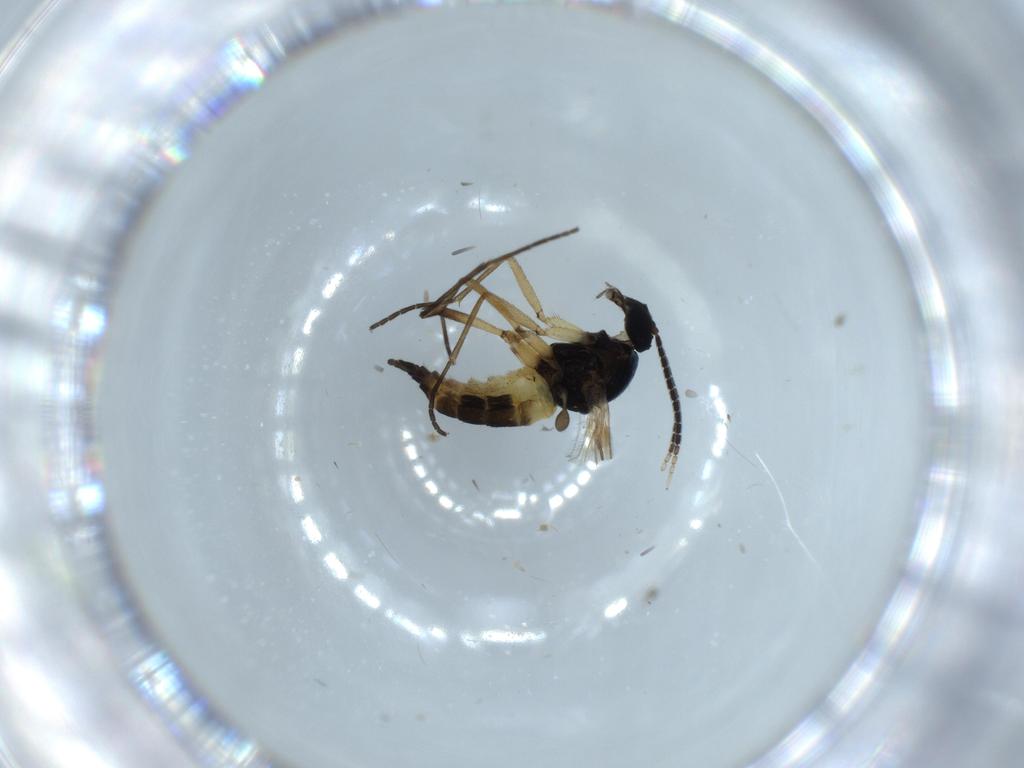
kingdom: Animalia
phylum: Arthropoda
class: Insecta
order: Diptera
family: Sciaridae
